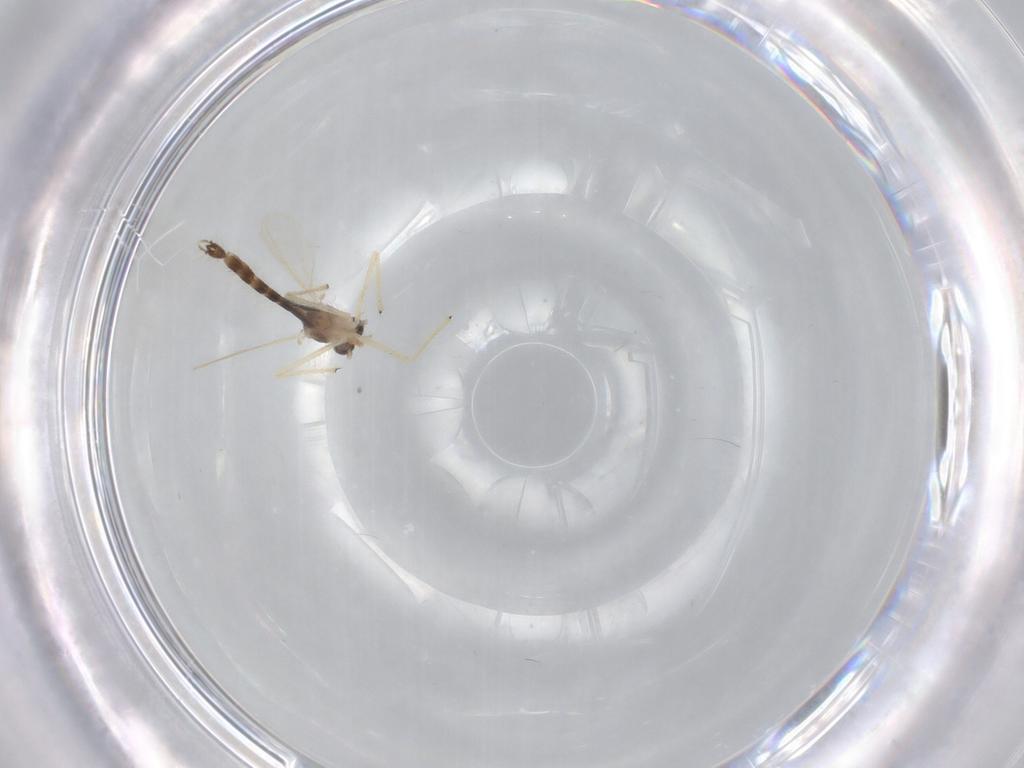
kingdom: Animalia
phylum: Arthropoda
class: Insecta
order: Diptera
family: Chironomidae
